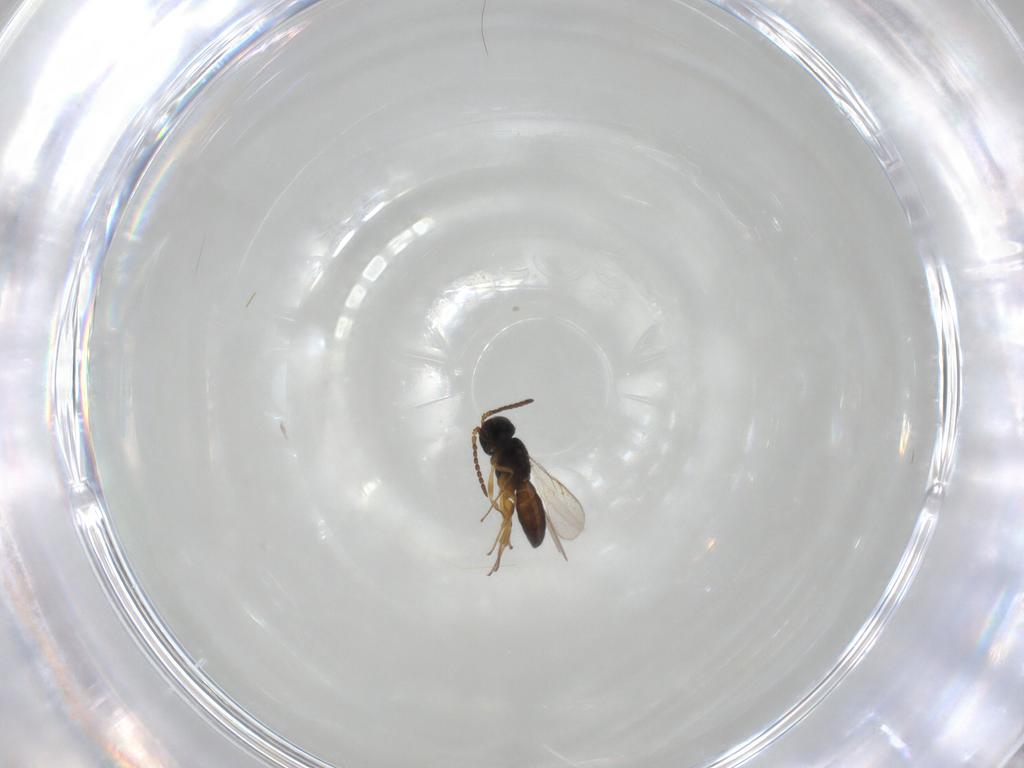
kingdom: Animalia
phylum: Arthropoda
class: Insecta
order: Hymenoptera
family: Scelionidae
